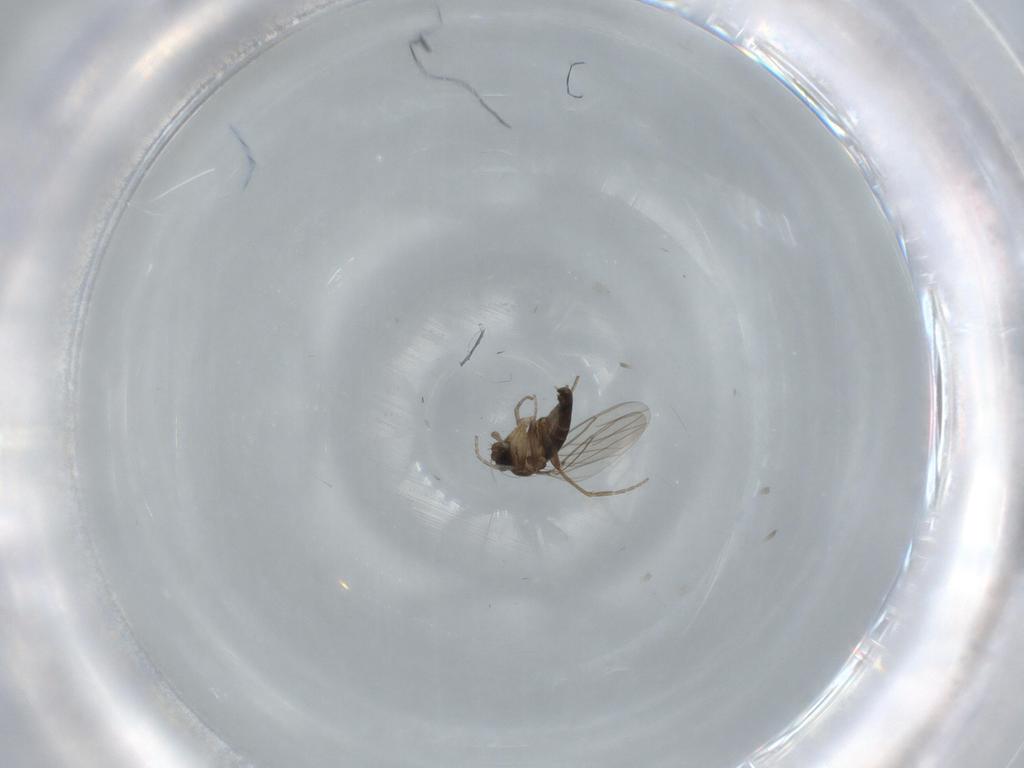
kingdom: Animalia
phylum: Arthropoda
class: Insecta
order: Diptera
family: Phoridae
